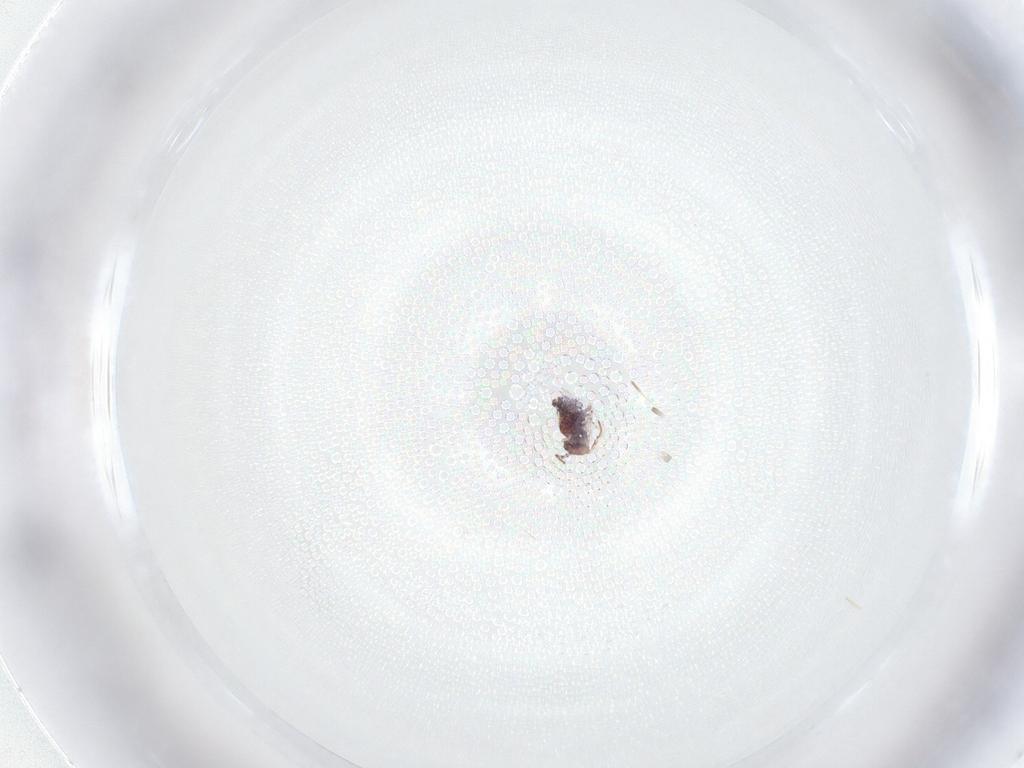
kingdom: Animalia
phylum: Arthropoda
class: Collembola
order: Symphypleona
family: Bourletiellidae
